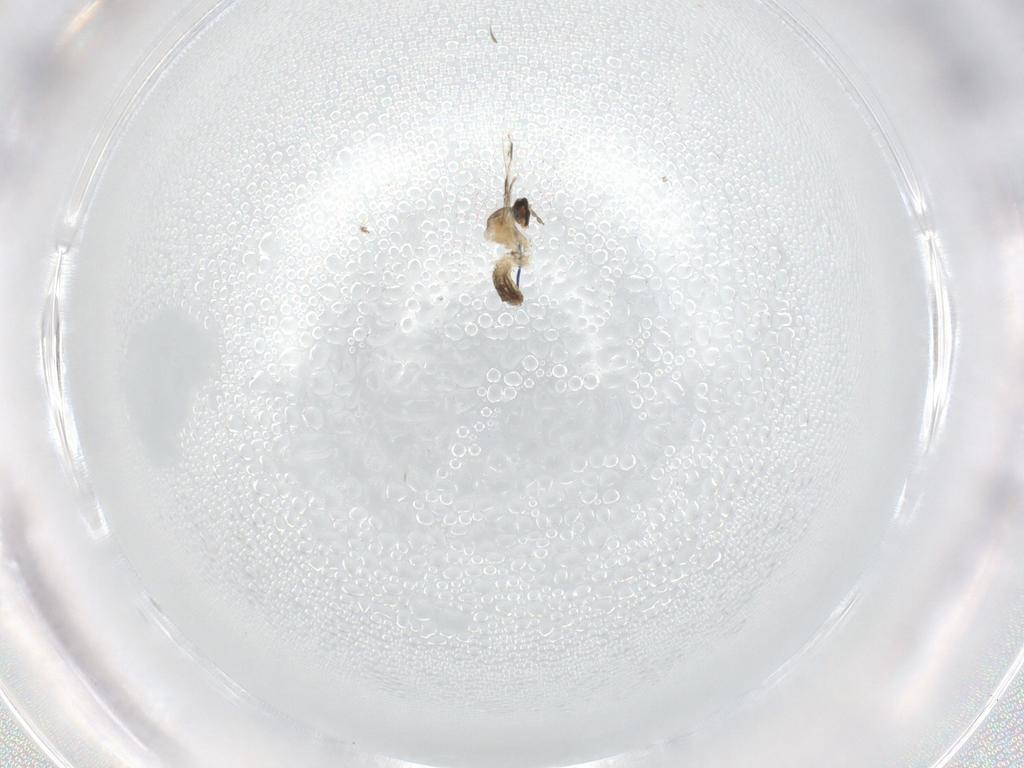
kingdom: Animalia
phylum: Arthropoda
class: Insecta
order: Diptera
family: Cecidomyiidae
